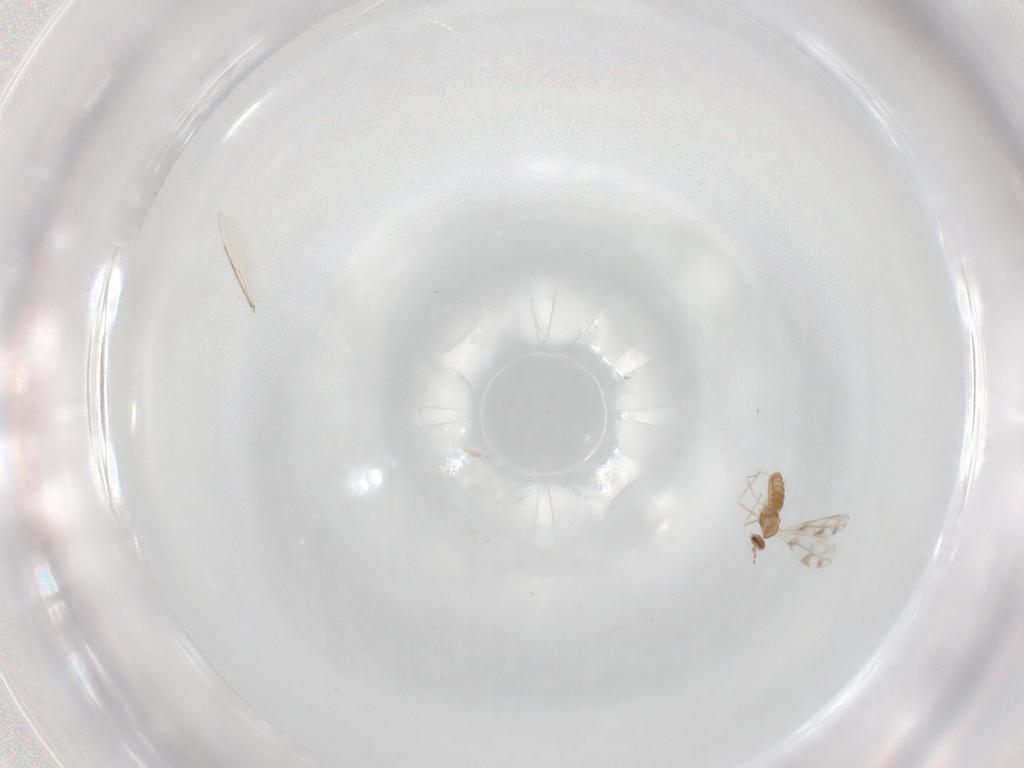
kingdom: Animalia
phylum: Arthropoda
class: Insecta
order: Diptera
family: Cecidomyiidae
